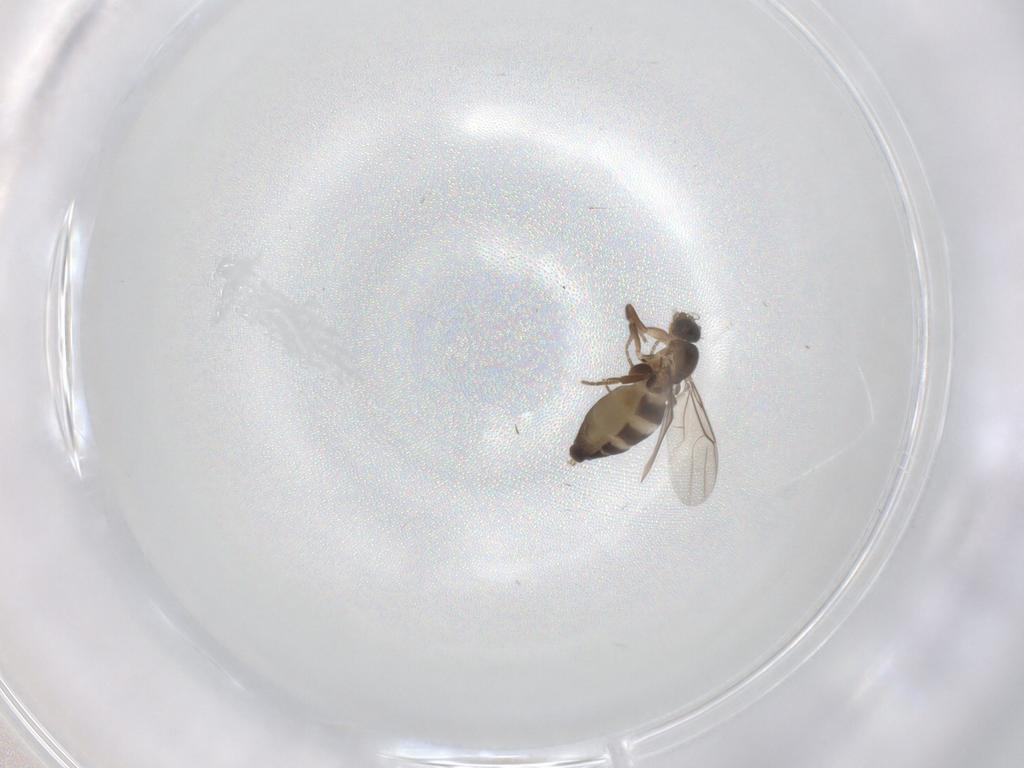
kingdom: Animalia
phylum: Arthropoda
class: Insecta
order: Diptera
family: Phoridae
